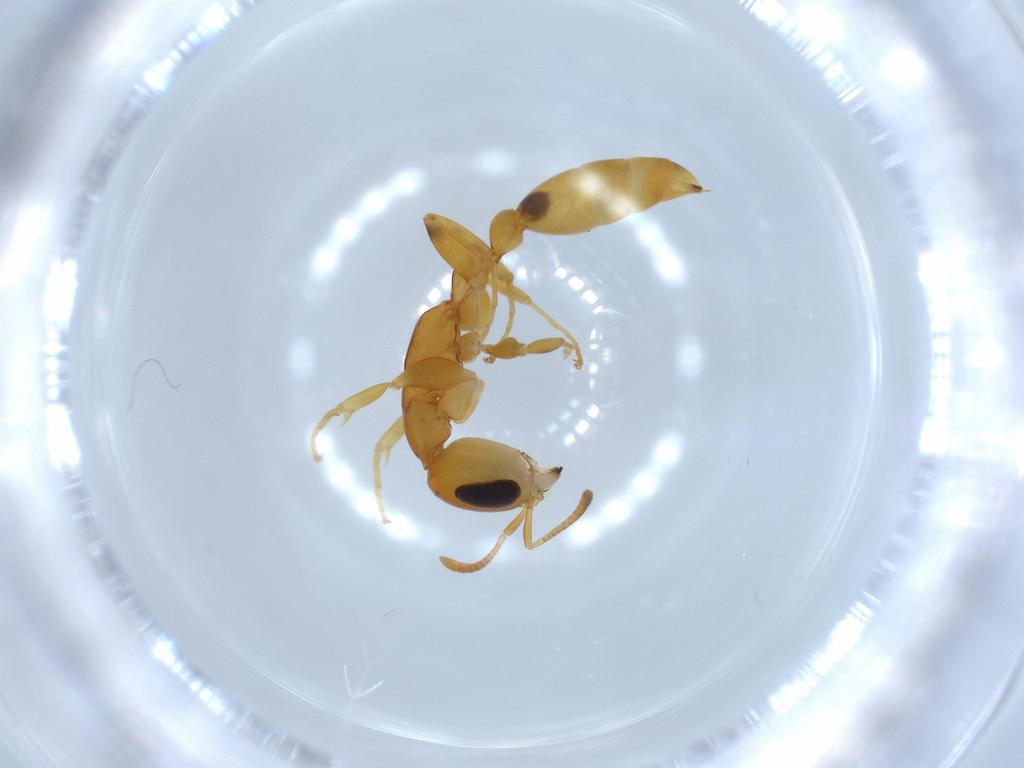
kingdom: Animalia
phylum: Arthropoda
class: Insecta
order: Hymenoptera
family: Formicidae
